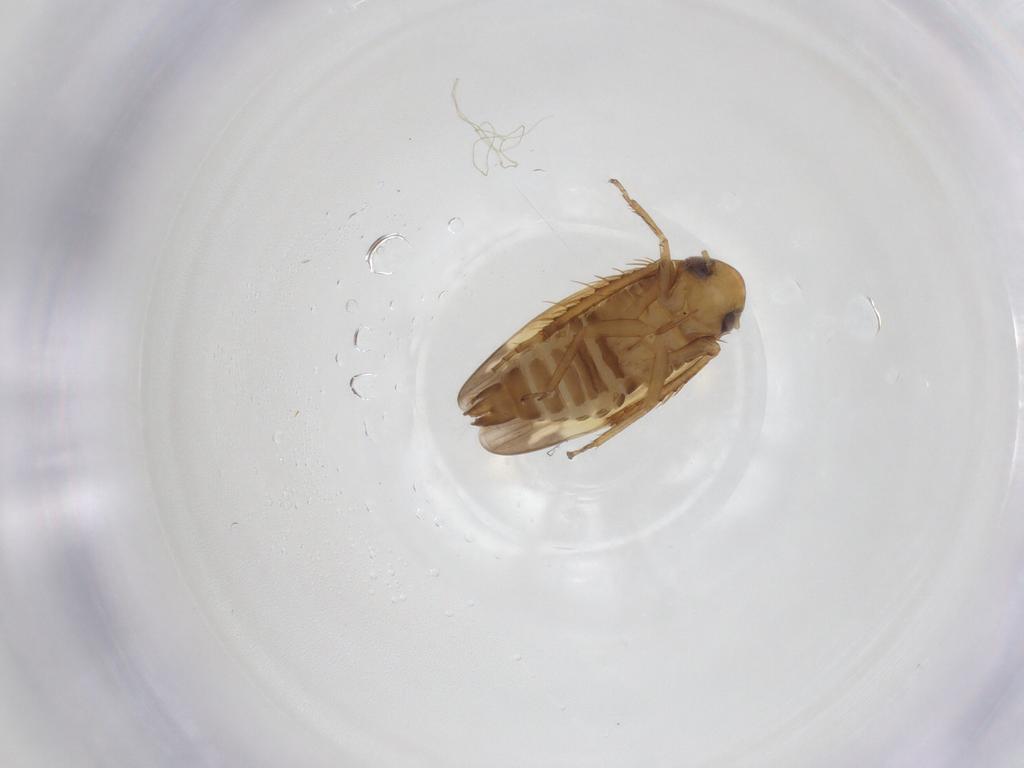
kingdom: Animalia
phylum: Arthropoda
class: Insecta
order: Hemiptera
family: Cicadellidae
